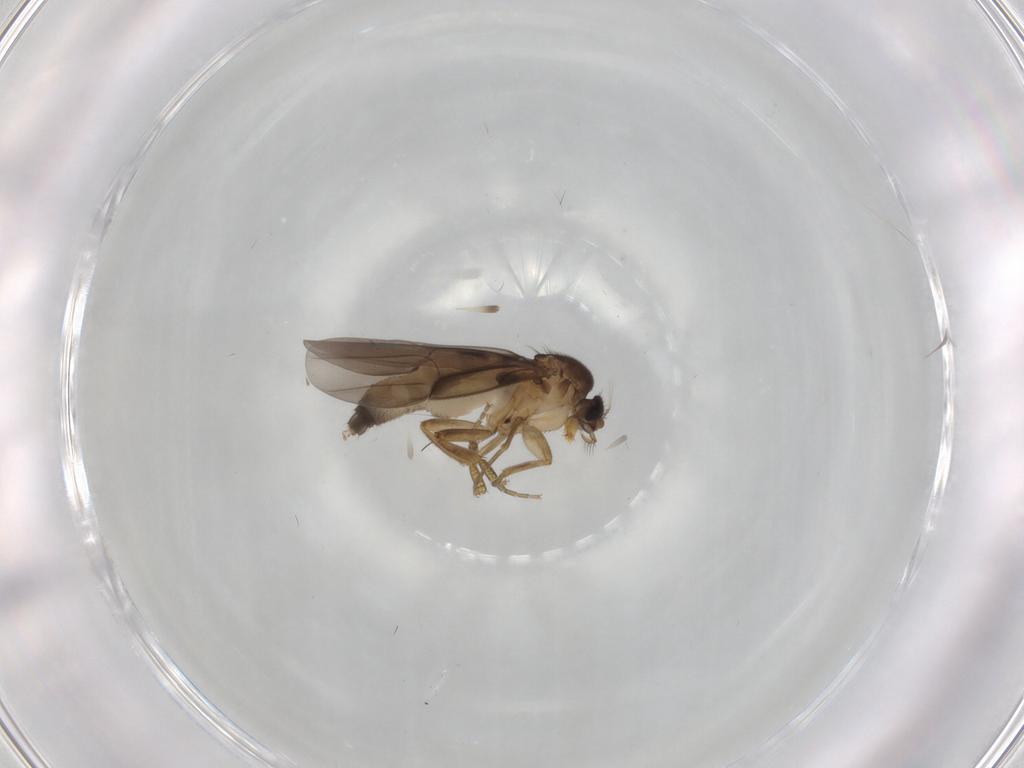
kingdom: Animalia
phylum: Arthropoda
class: Insecta
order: Diptera
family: Phoridae
